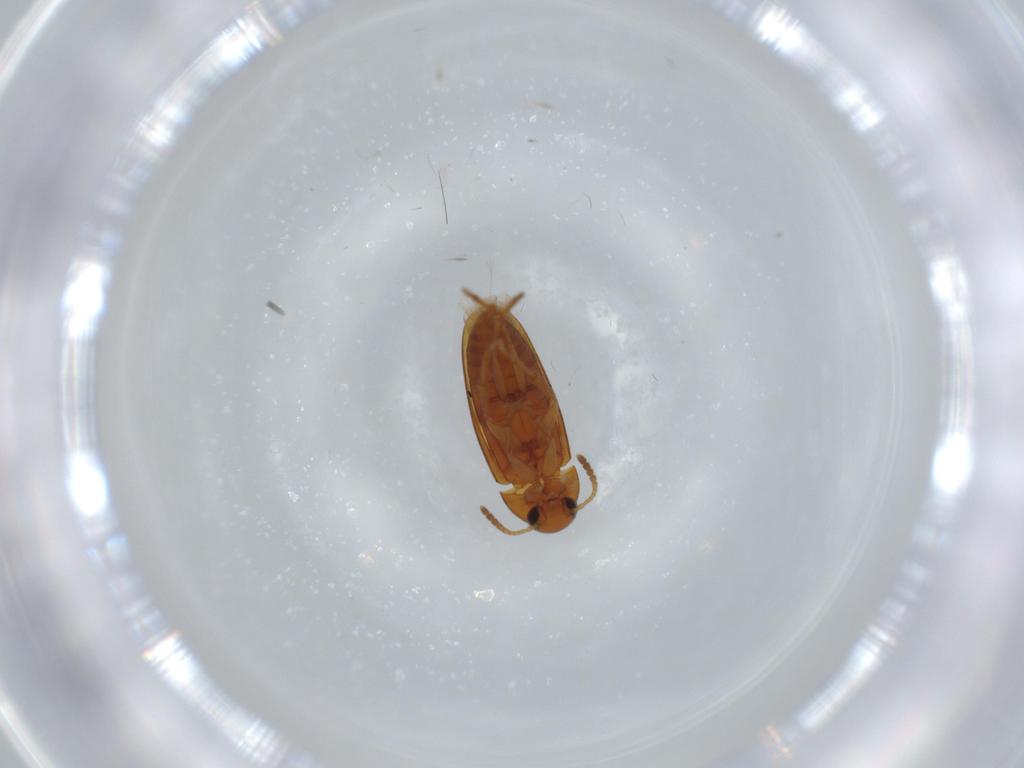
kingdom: Animalia
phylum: Arthropoda
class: Insecta
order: Coleoptera
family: Scraptiidae
